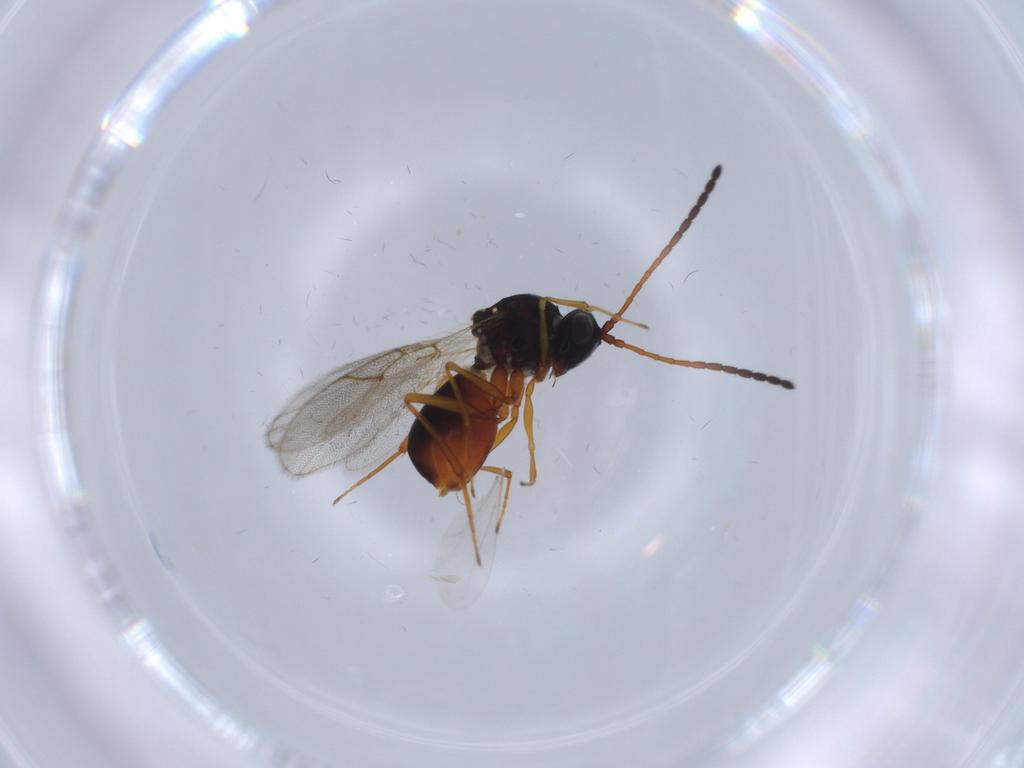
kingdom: Animalia
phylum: Arthropoda
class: Insecta
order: Hymenoptera
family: Figitidae
